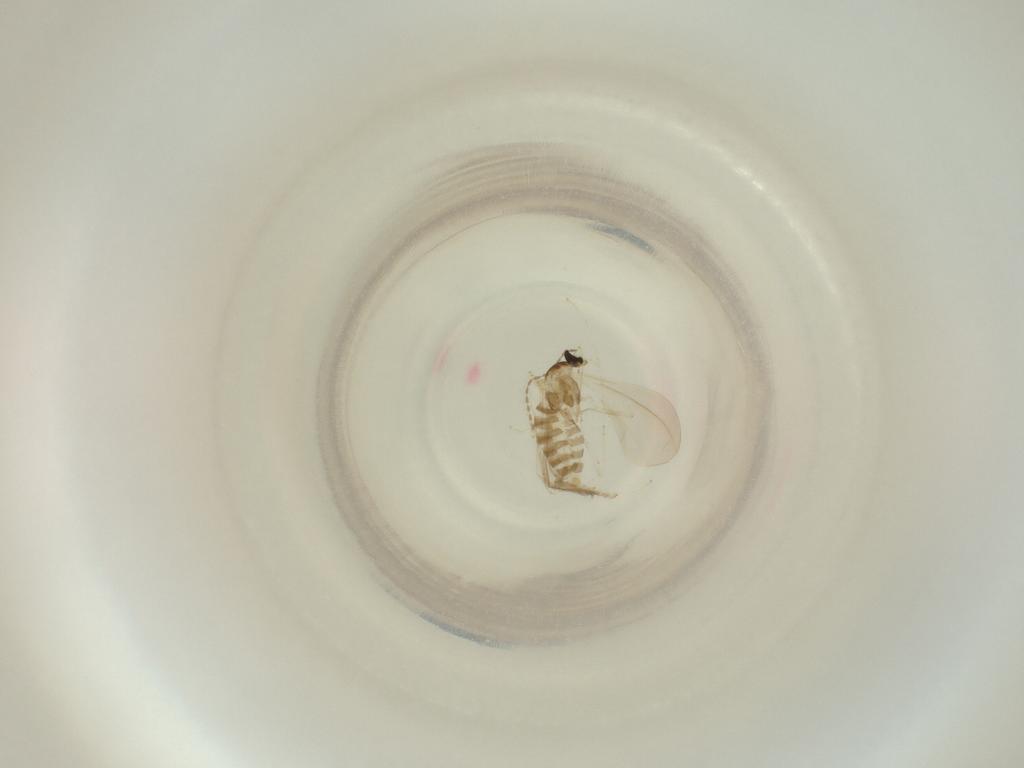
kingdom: Animalia
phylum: Arthropoda
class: Insecta
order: Diptera
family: Cecidomyiidae
